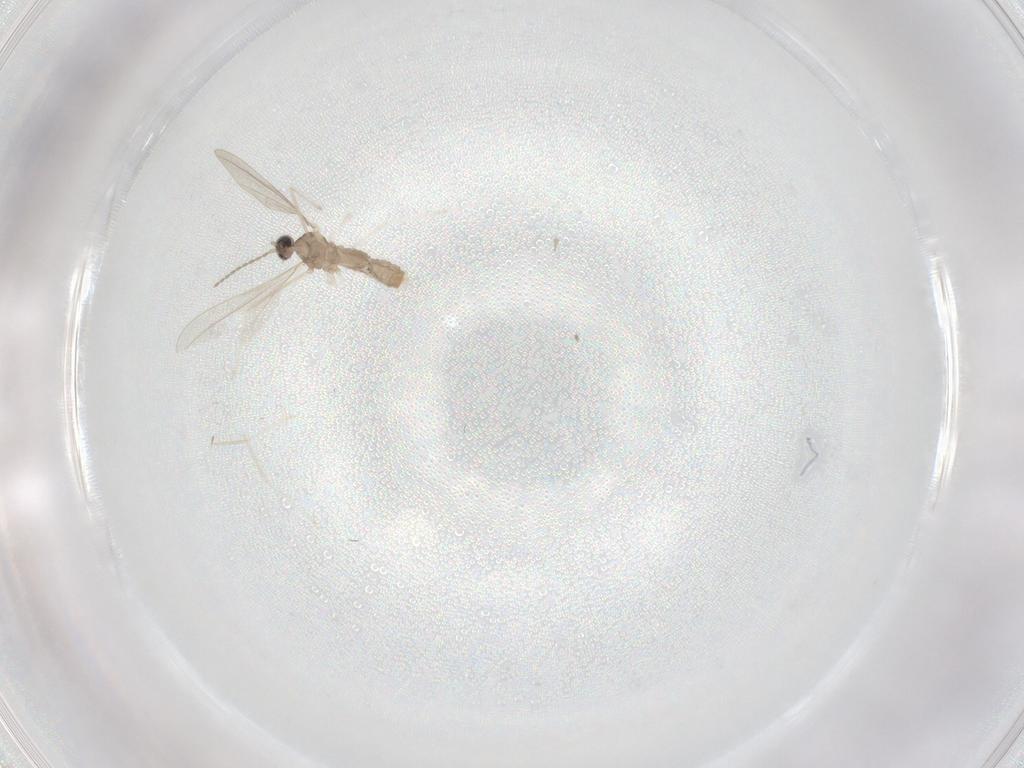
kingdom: Animalia
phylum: Arthropoda
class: Insecta
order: Diptera
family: Cecidomyiidae
